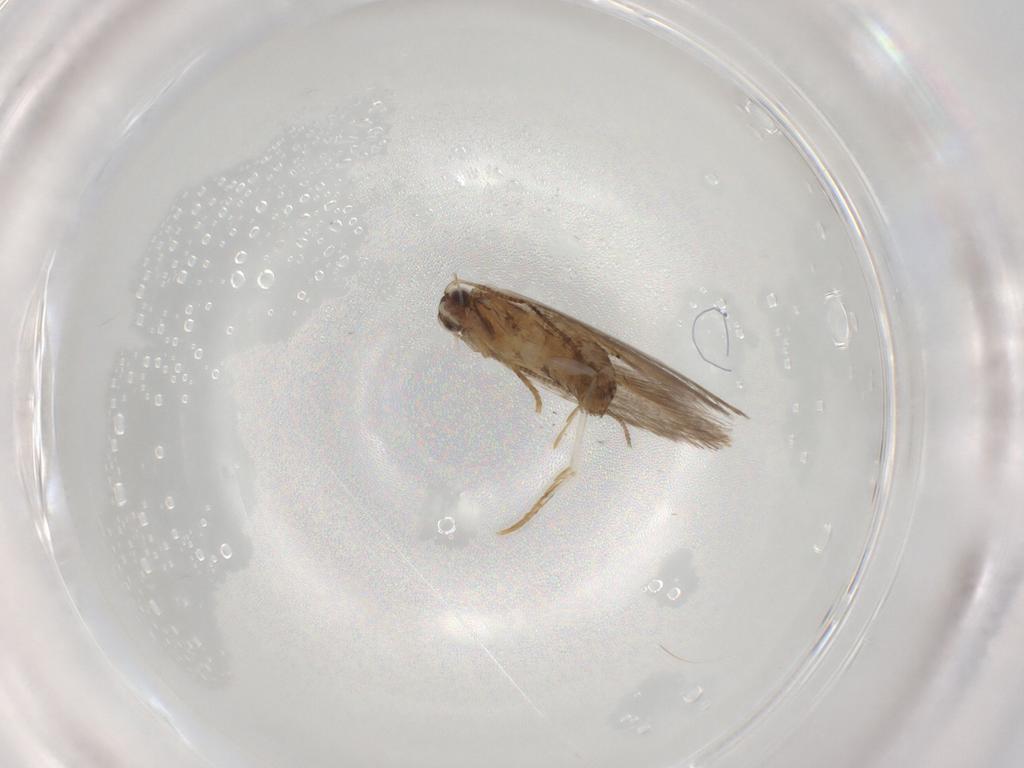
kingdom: Animalia
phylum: Arthropoda
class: Insecta
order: Lepidoptera
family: Tineidae
